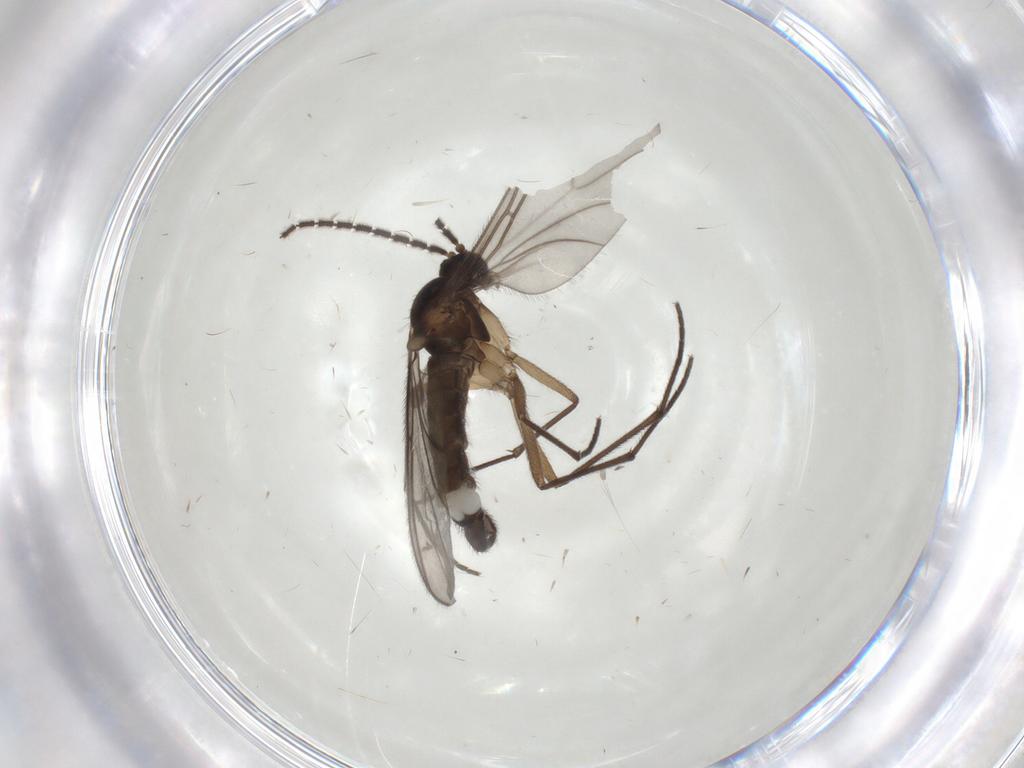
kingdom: Animalia
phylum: Arthropoda
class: Insecta
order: Diptera
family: Sciaridae
